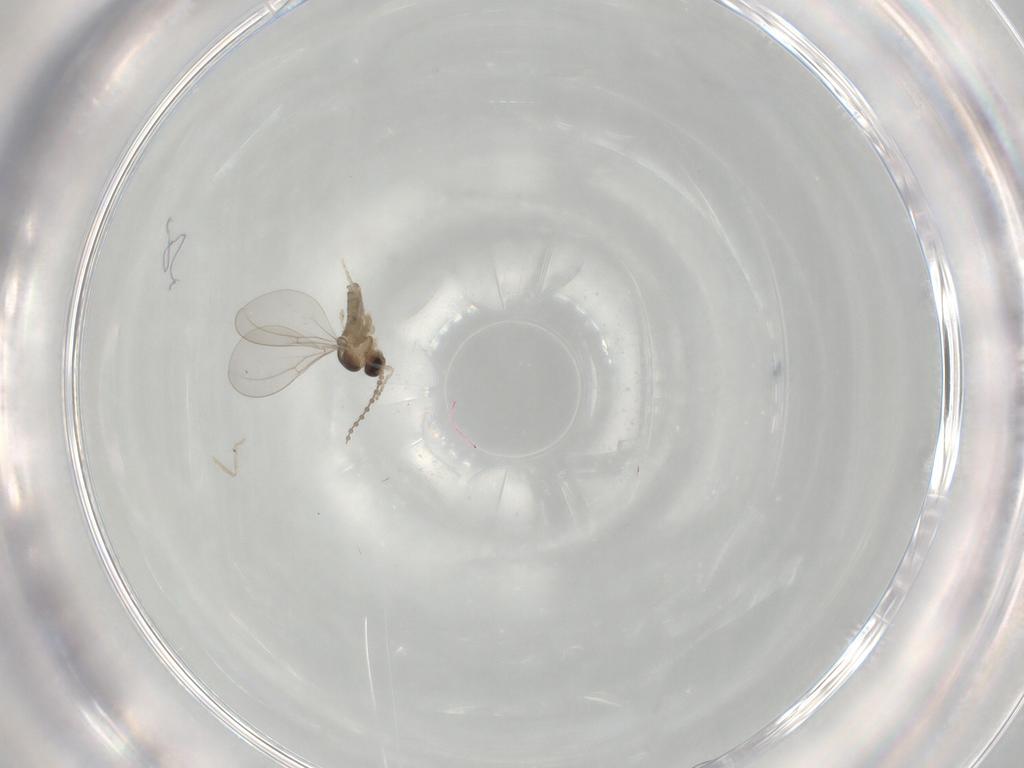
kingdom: Animalia
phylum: Arthropoda
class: Insecta
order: Diptera
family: Cecidomyiidae
